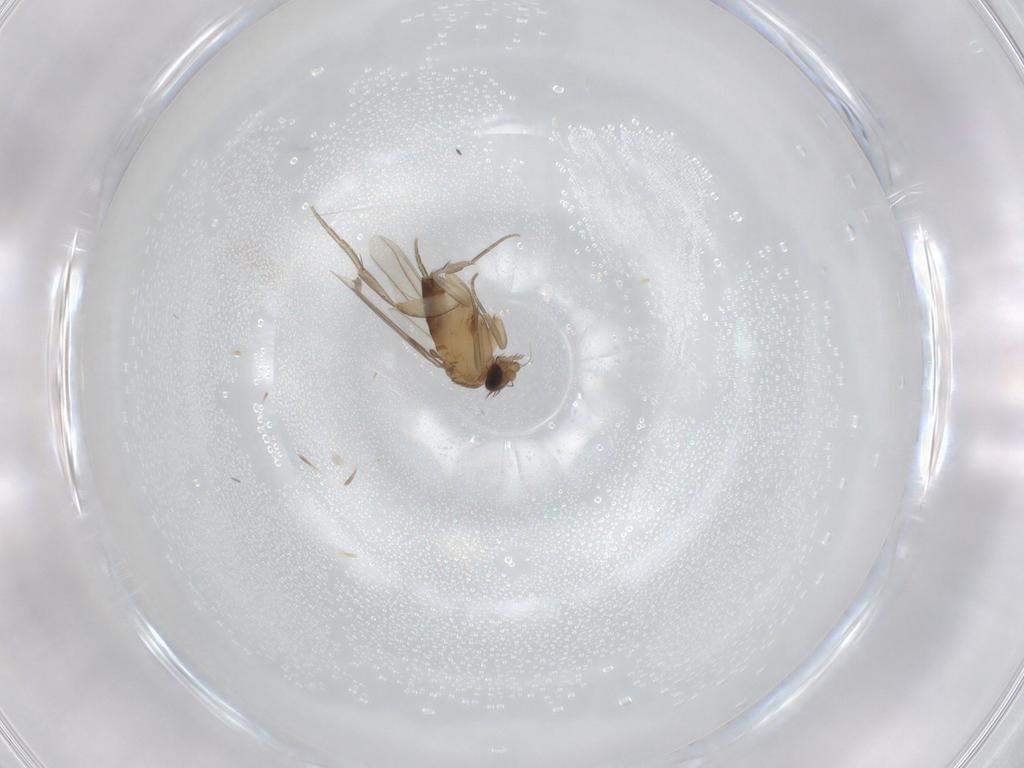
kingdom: Animalia
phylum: Arthropoda
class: Insecta
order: Diptera
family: Phoridae
